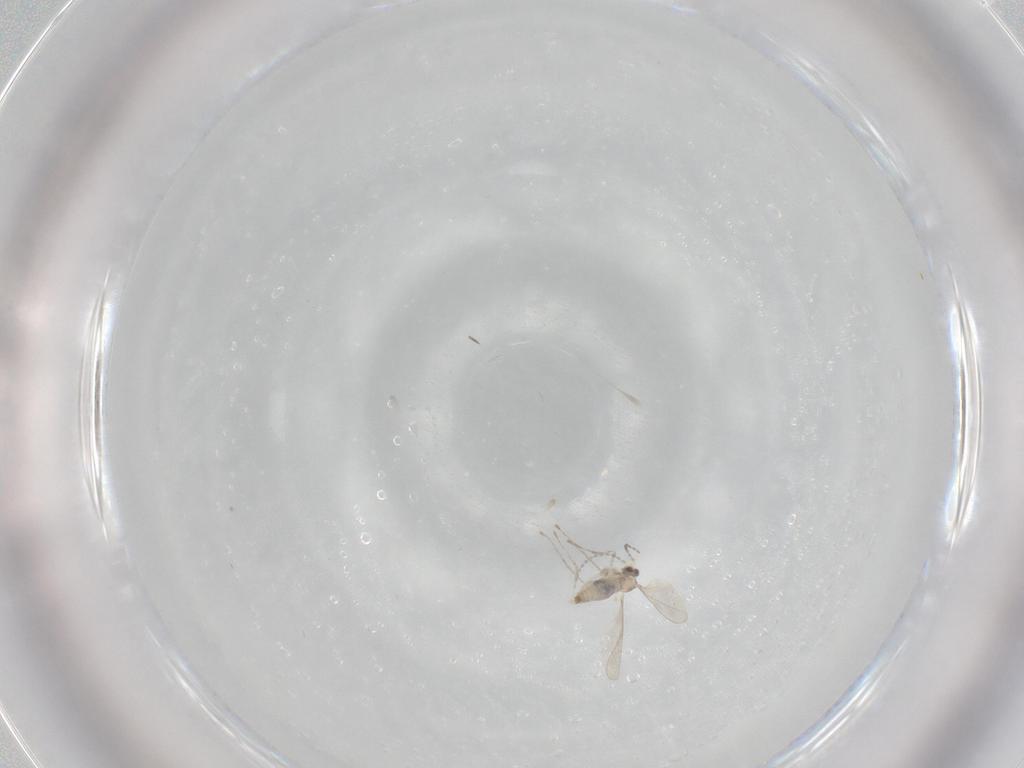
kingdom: Animalia
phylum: Arthropoda
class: Insecta
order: Diptera
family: Cecidomyiidae
